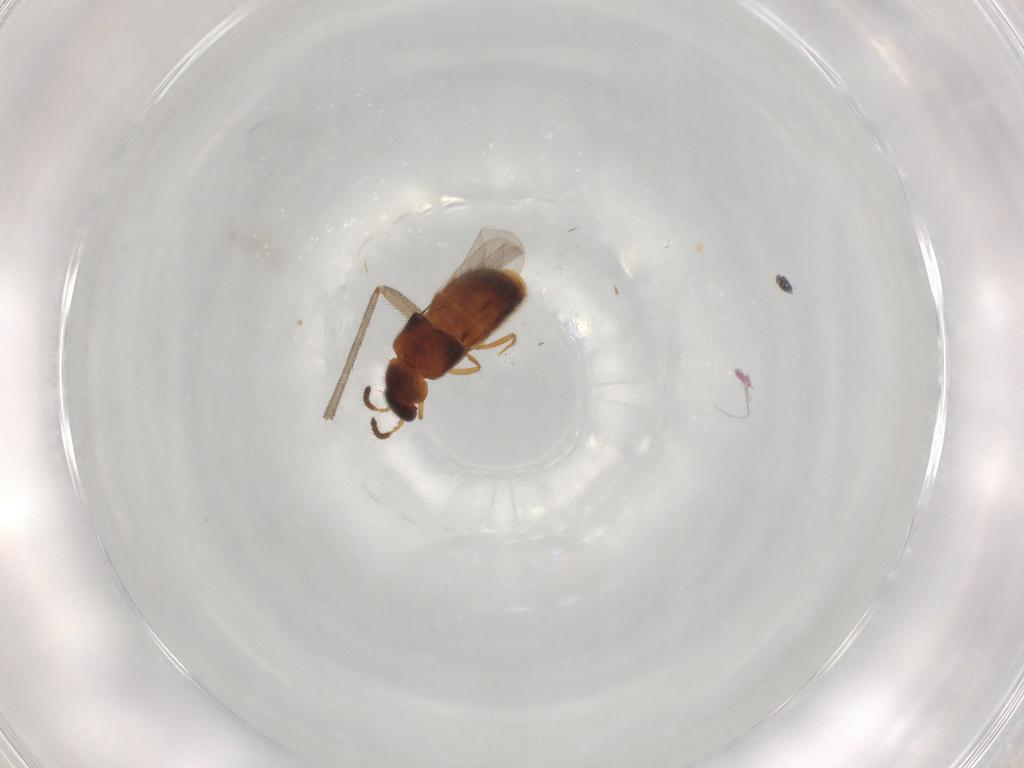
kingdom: Animalia
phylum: Arthropoda
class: Insecta
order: Coleoptera
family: Staphylinidae
